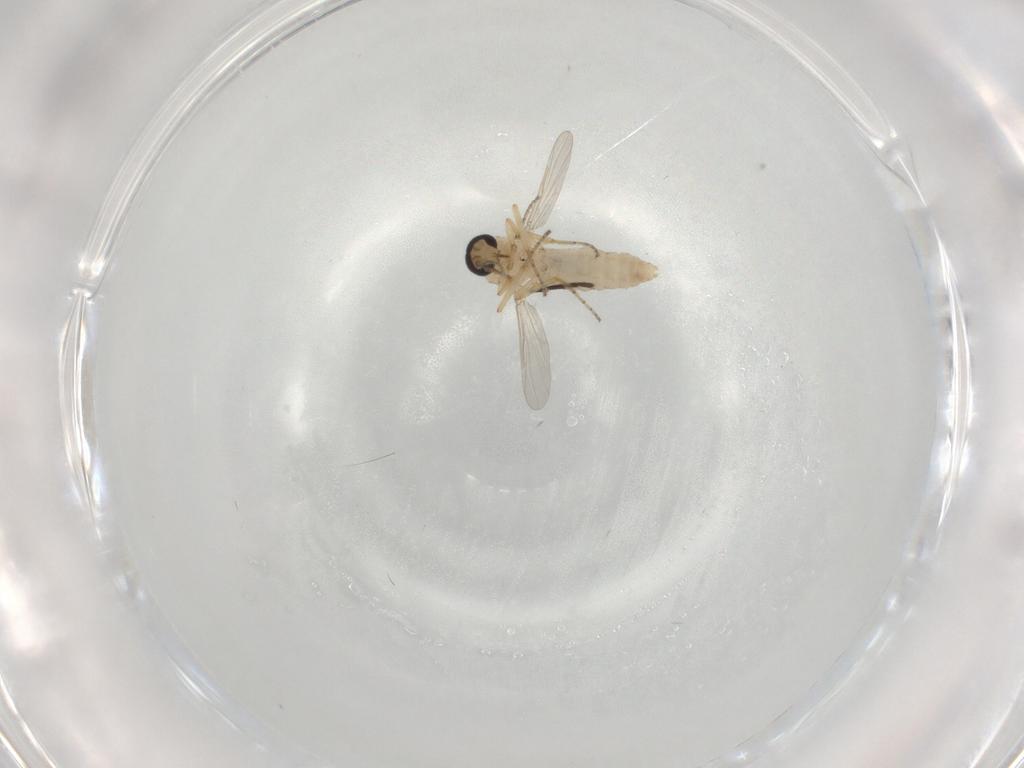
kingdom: Animalia
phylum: Arthropoda
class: Insecta
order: Diptera
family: Ceratopogonidae
